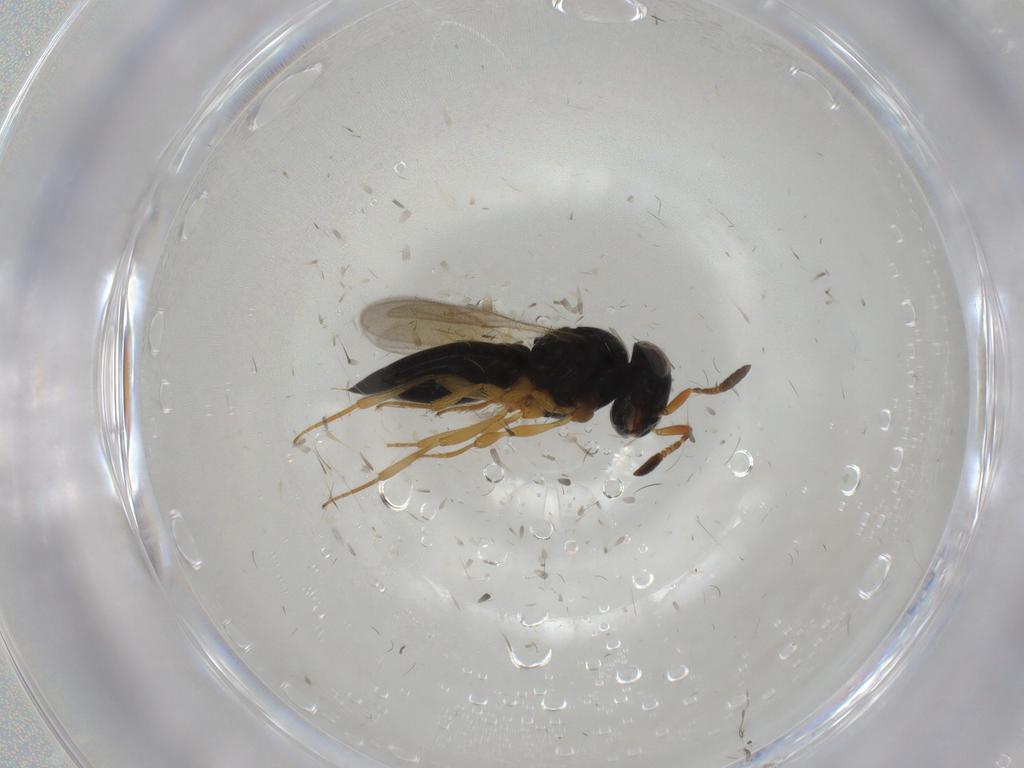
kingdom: Animalia
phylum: Arthropoda
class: Insecta
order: Hymenoptera
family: Scelionidae
